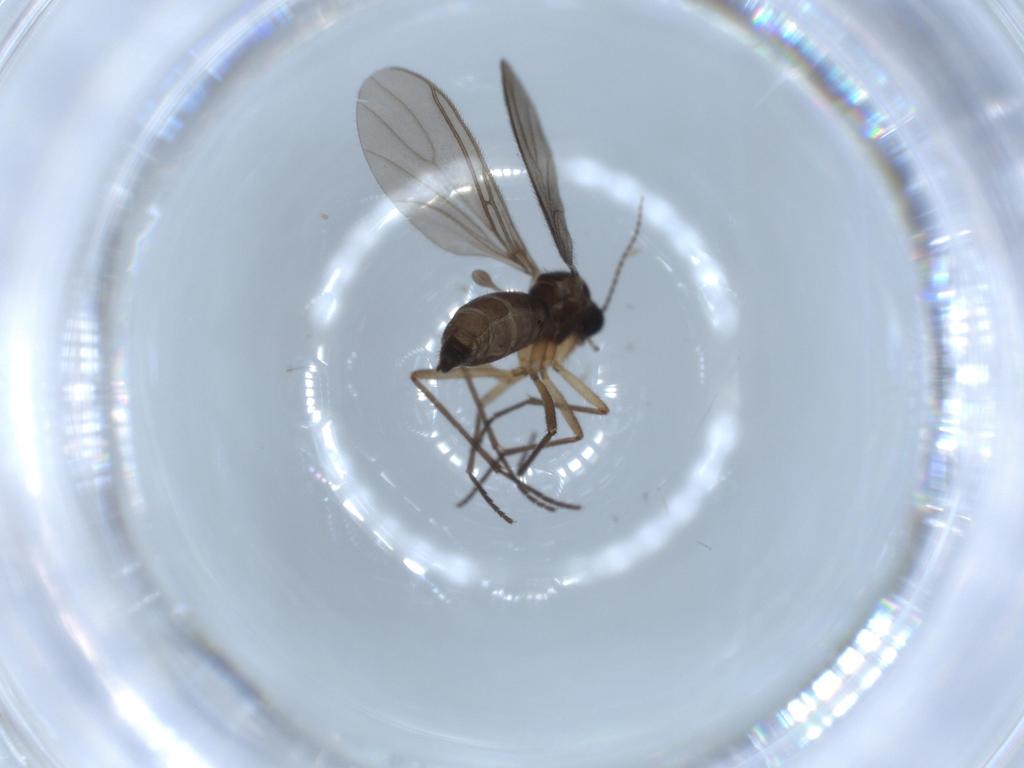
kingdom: Animalia
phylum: Arthropoda
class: Insecta
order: Diptera
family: Sciaridae
